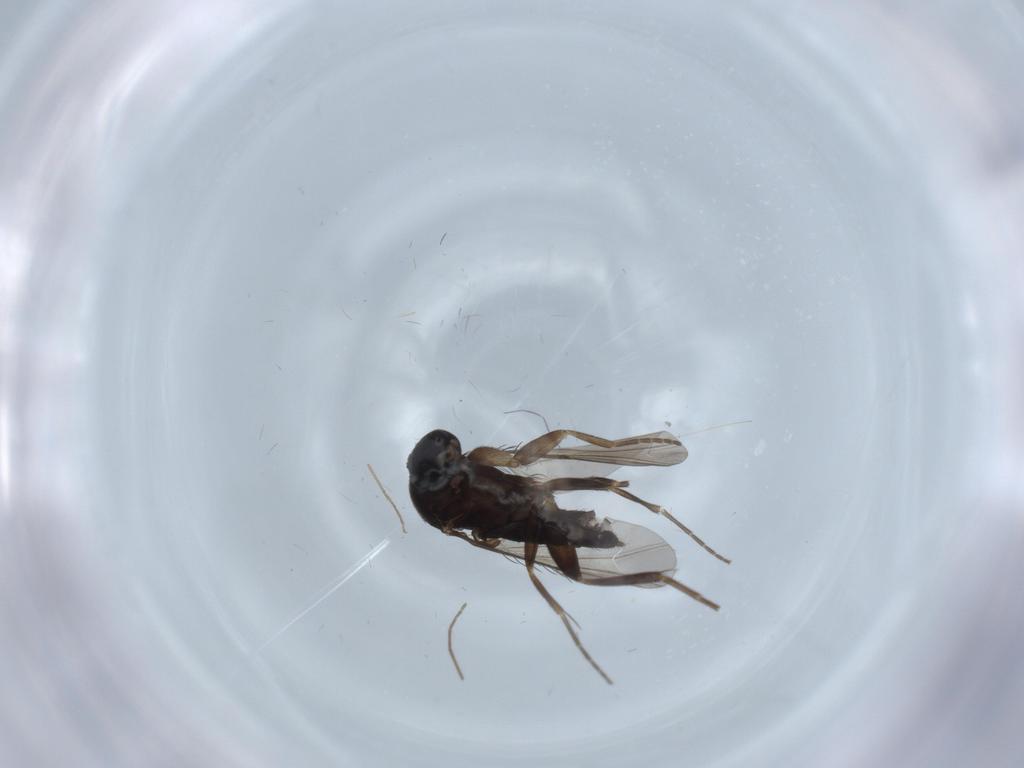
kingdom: Animalia
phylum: Arthropoda
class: Insecta
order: Diptera
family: Phoridae
